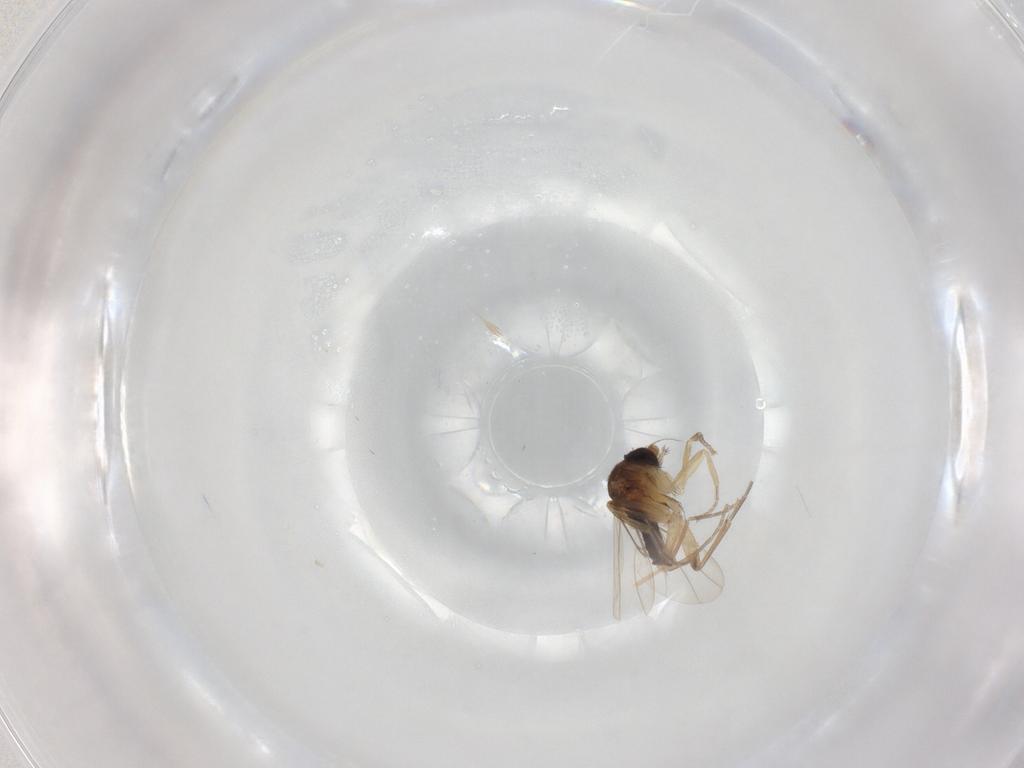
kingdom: Animalia
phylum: Arthropoda
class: Insecta
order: Diptera
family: Phoridae
